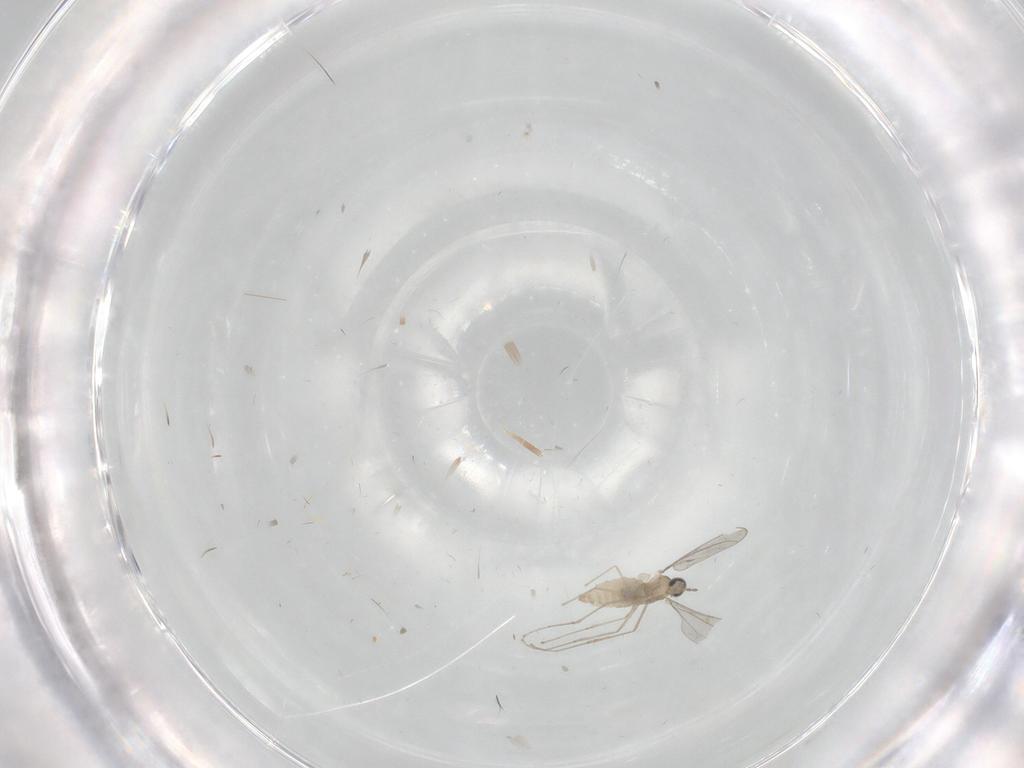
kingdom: Animalia
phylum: Arthropoda
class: Insecta
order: Diptera
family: Cecidomyiidae
